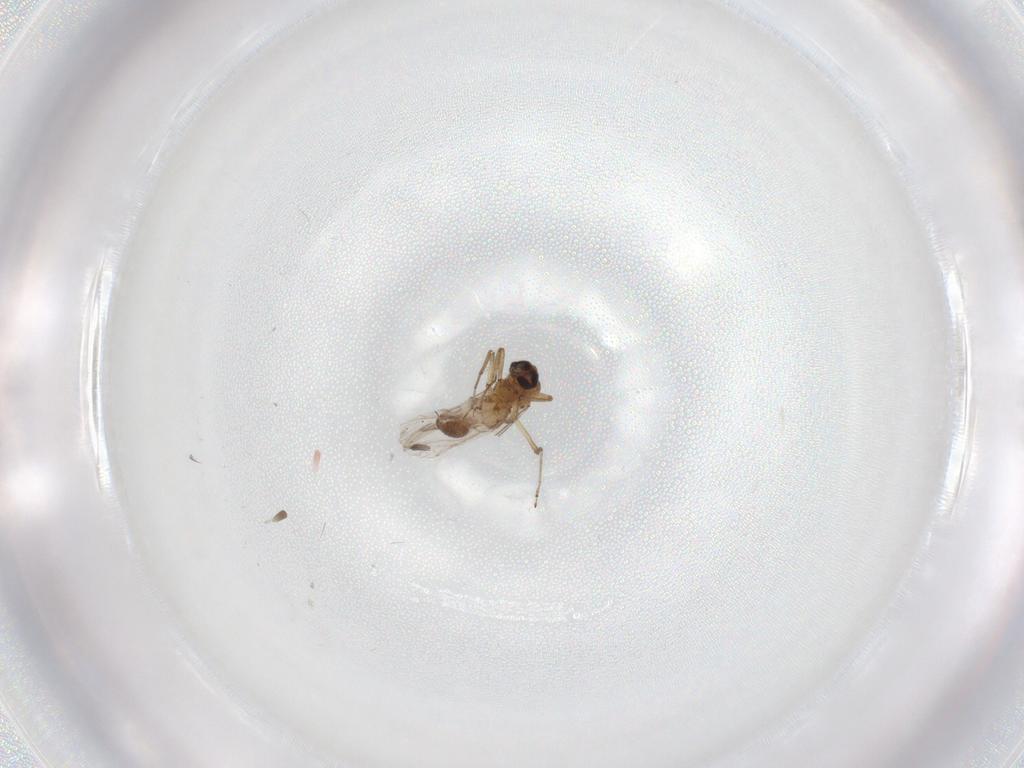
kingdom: Animalia
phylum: Arthropoda
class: Insecta
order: Diptera
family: Ceratopogonidae
